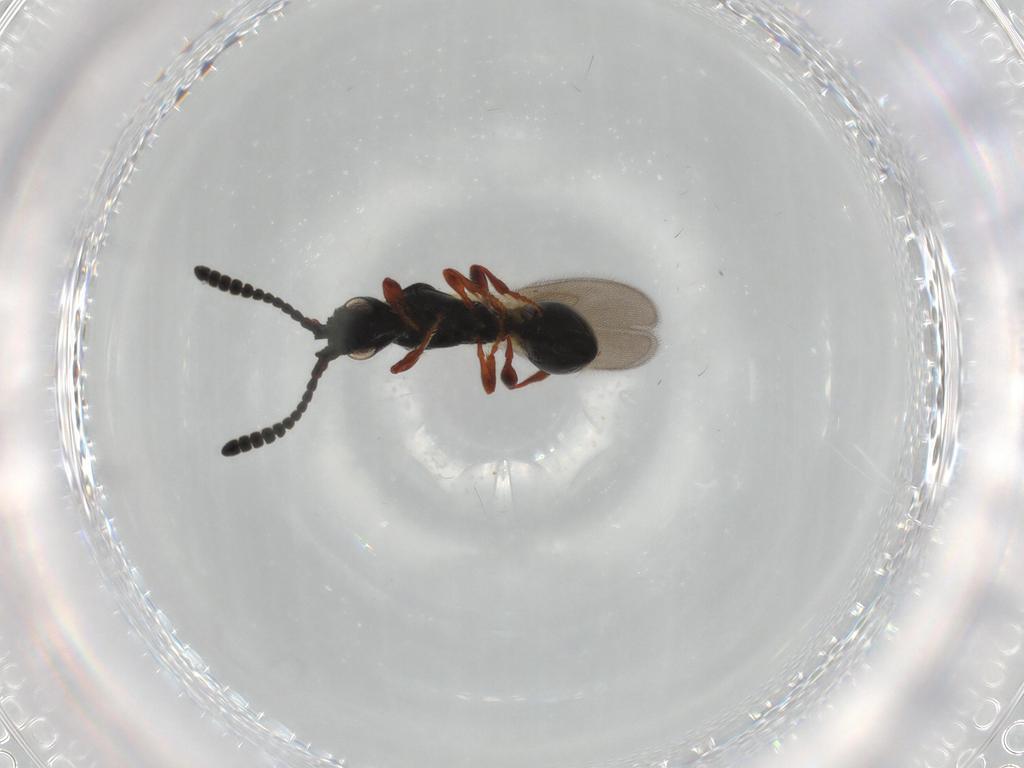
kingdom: Animalia
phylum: Arthropoda
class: Insecta
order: Hymenoptera
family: Diapriidae
